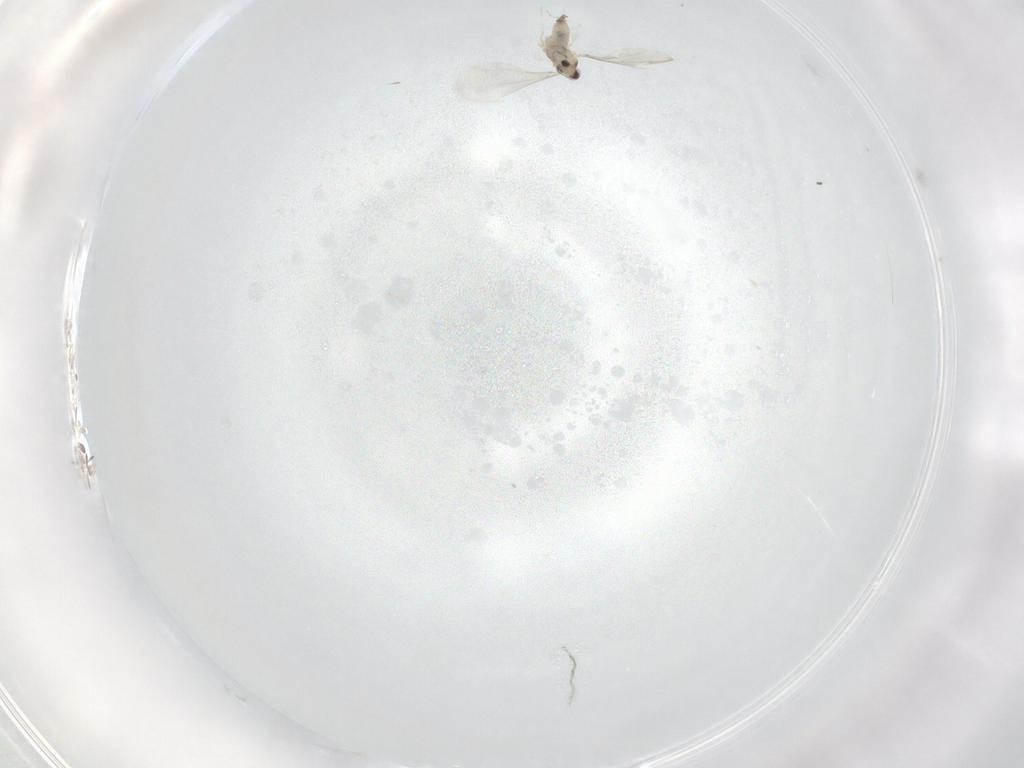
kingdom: Animalia
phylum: Arthropoda
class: Insecta
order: Diptera
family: Cecidomyiidae
